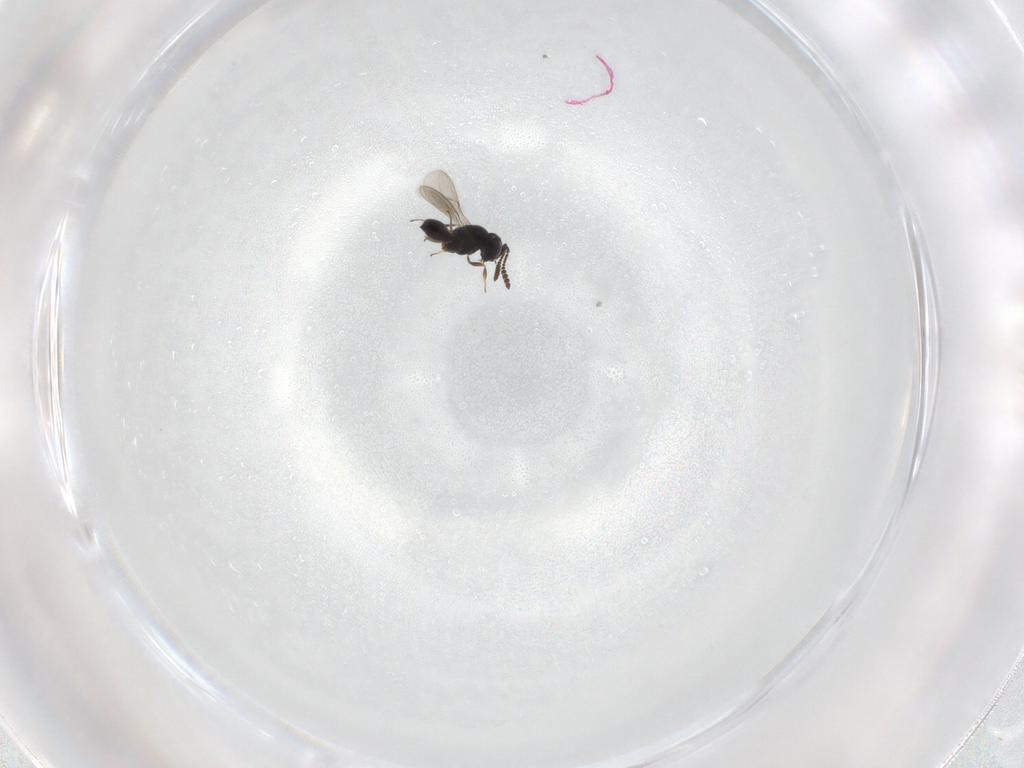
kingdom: Animalia
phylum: Arthropoda
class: Insecta
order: Hymenoptera
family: Scelionidae
